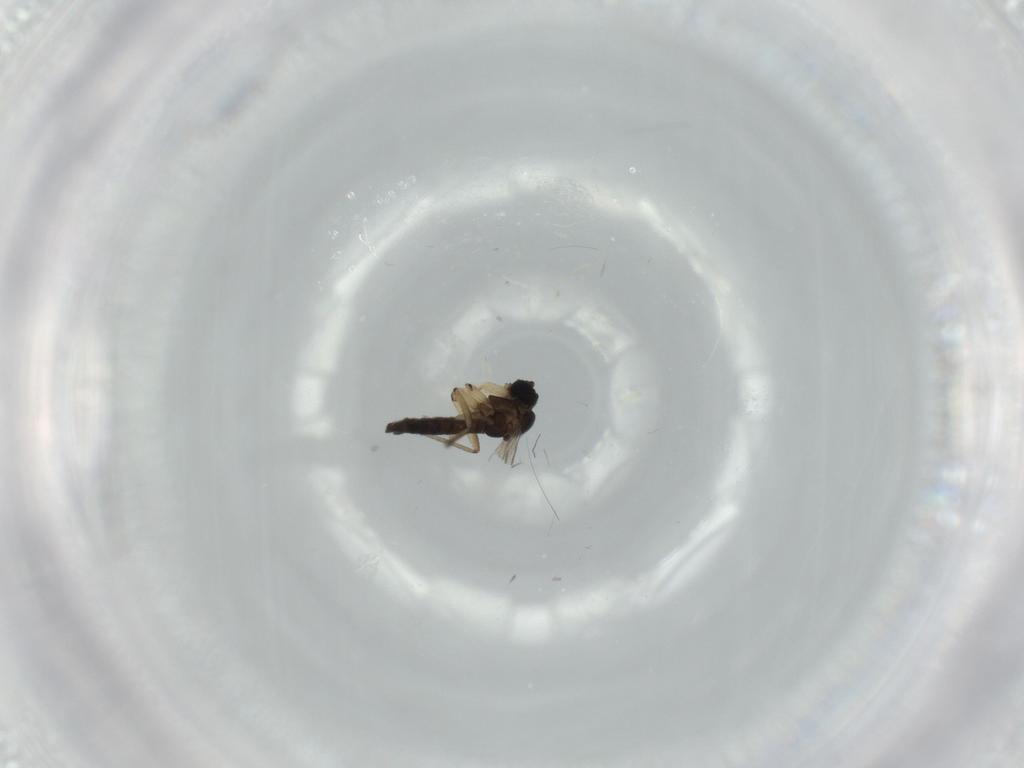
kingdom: Animalia
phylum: Arthropoda
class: Insecta
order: Diptera
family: Sciaridae
